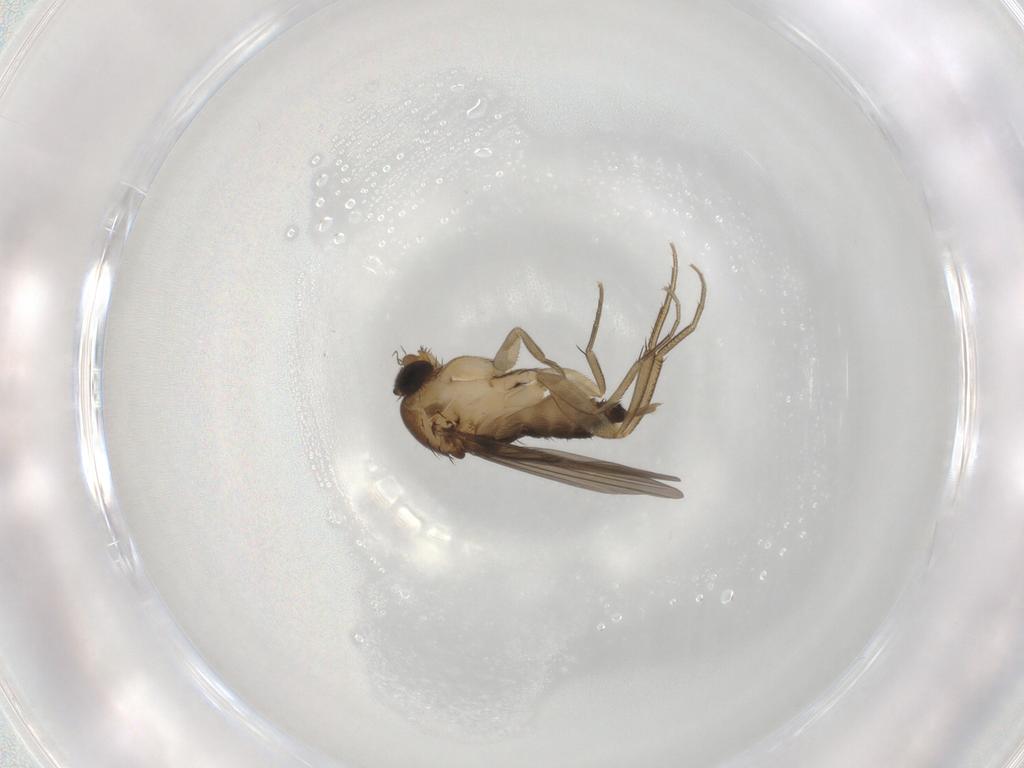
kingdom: Animalia
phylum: Arthropoda
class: Insecta
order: Diptera
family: Phoridae
